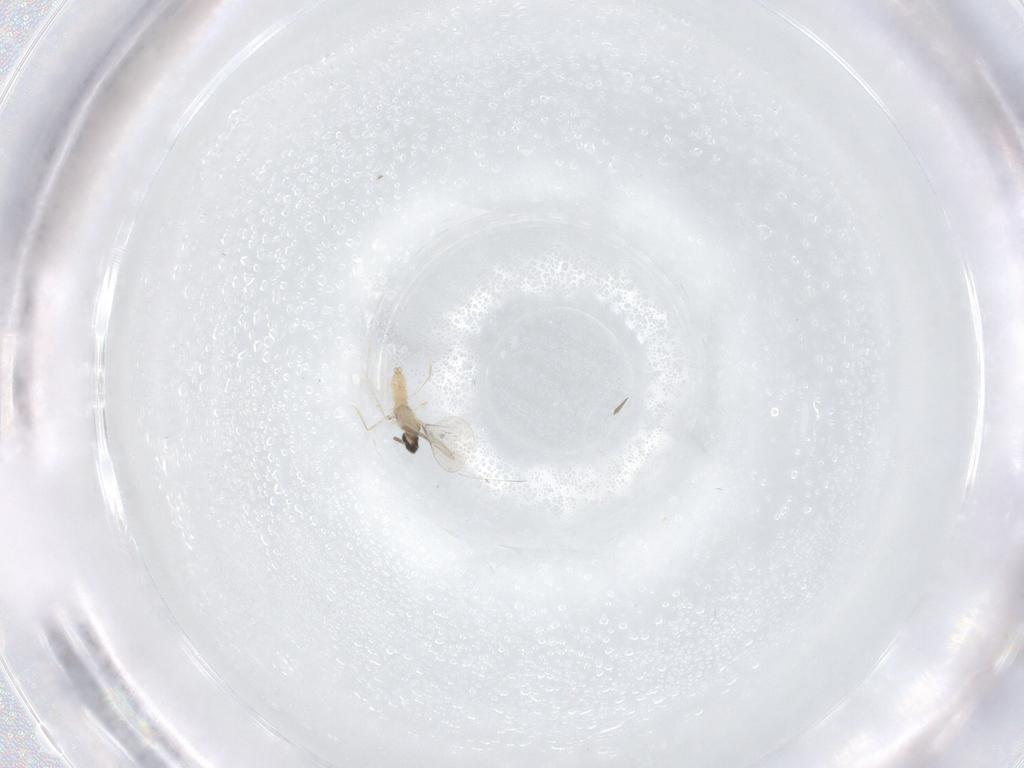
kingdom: Animalia
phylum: Arthropoda
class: Insecta
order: Diptera
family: Cecidomyiidae
